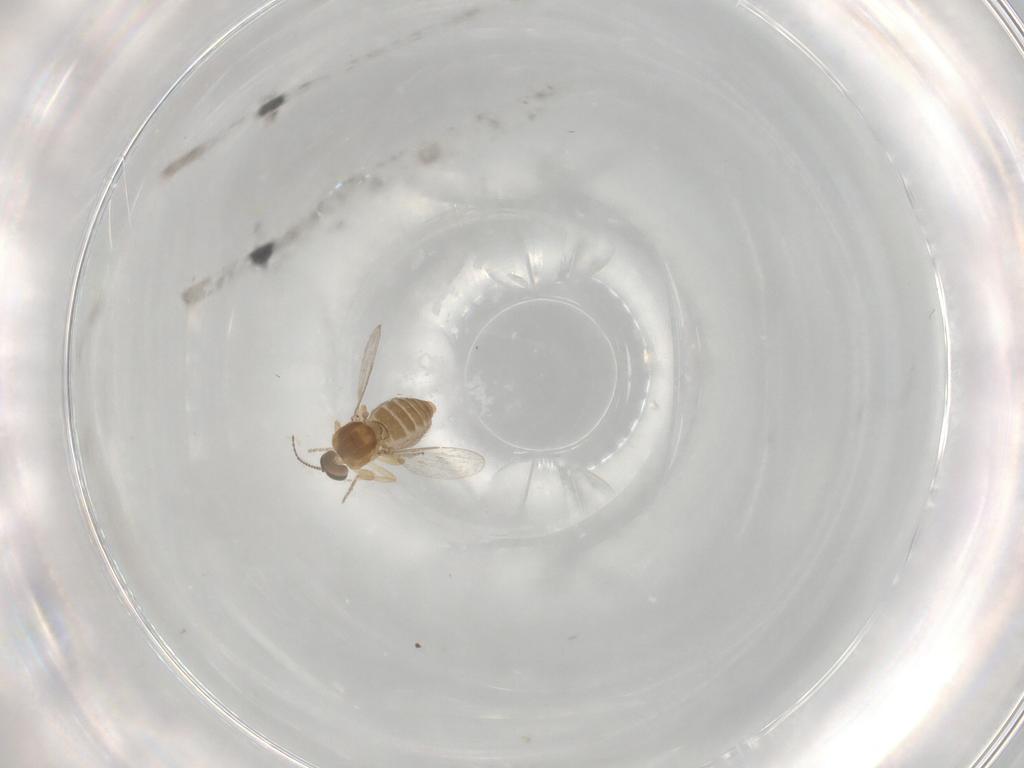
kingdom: Animalia
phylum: Arthropoda
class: Insecta
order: Diptera
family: Ceratopogonidae
